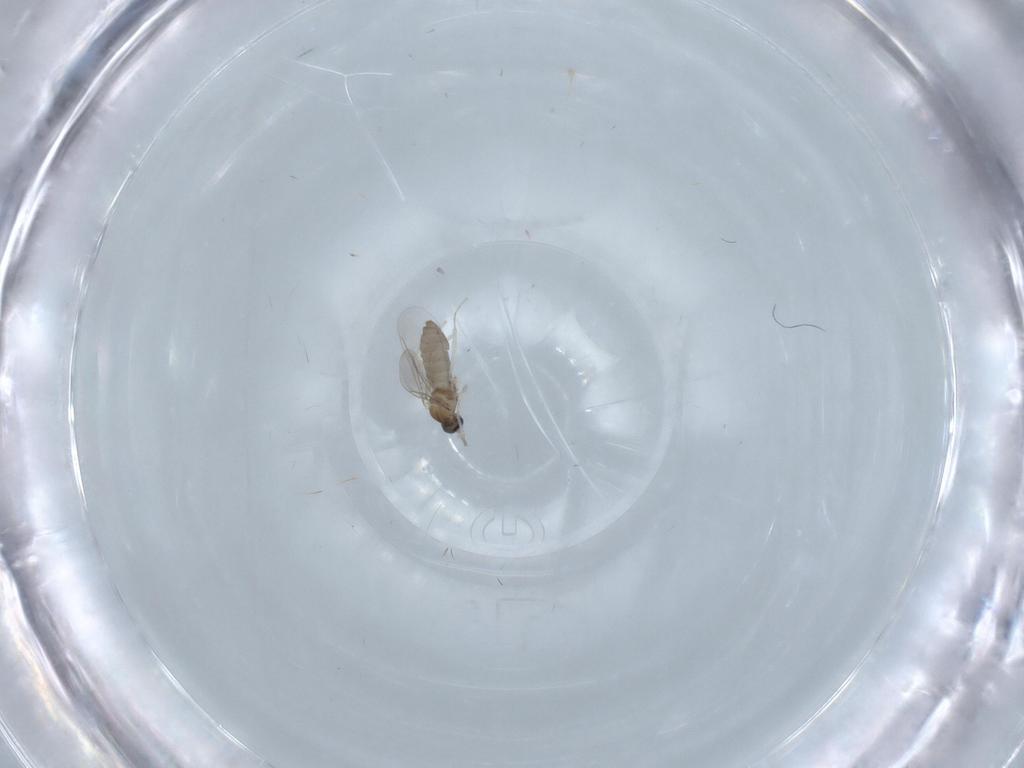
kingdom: Animalia
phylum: Arthropoda
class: Insecta
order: Diptera
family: Cecidomyiidae
